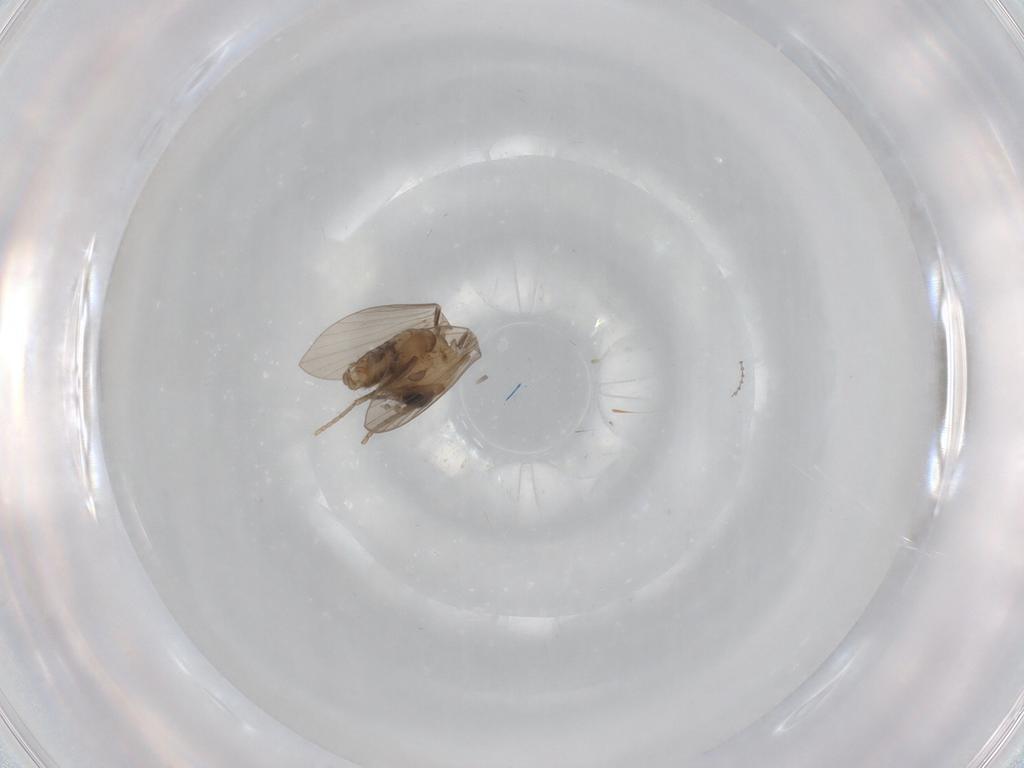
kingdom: Animalia
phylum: Arthropoda
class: Insecta
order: Diptera
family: Psychodidae
